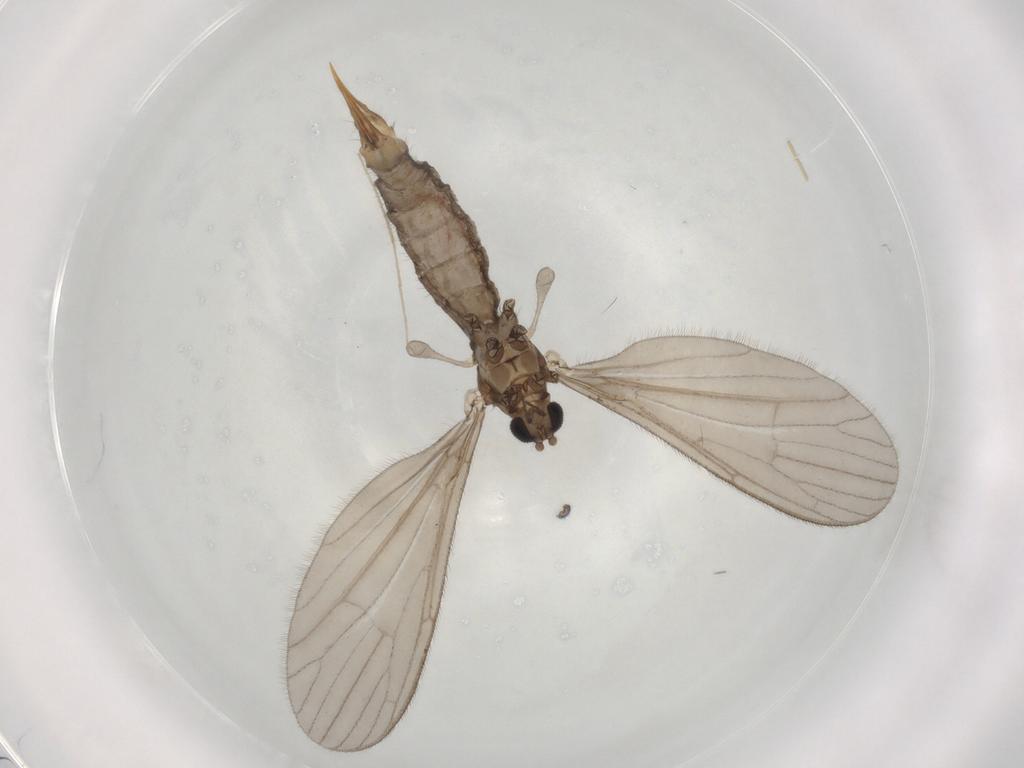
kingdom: Animalia
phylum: Arthropoda
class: Insecta
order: Diptera
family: Limoniidae
